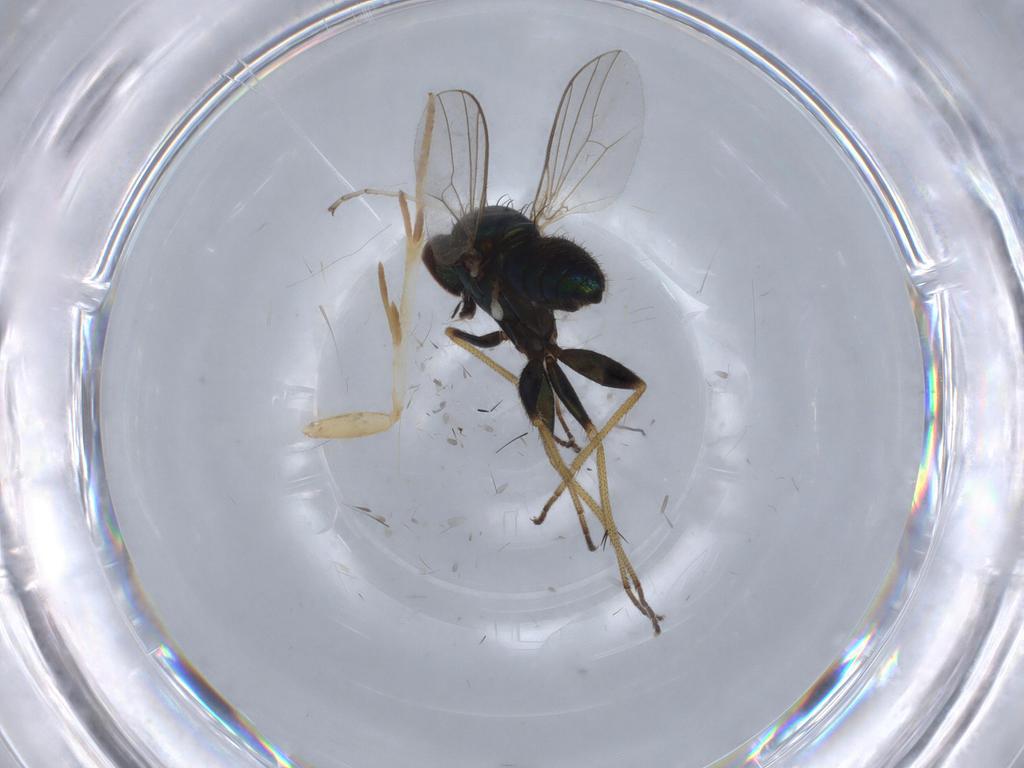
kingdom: Animalia
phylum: Arthropoda
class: Insecta
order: Diptera
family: Dolichopodidae
